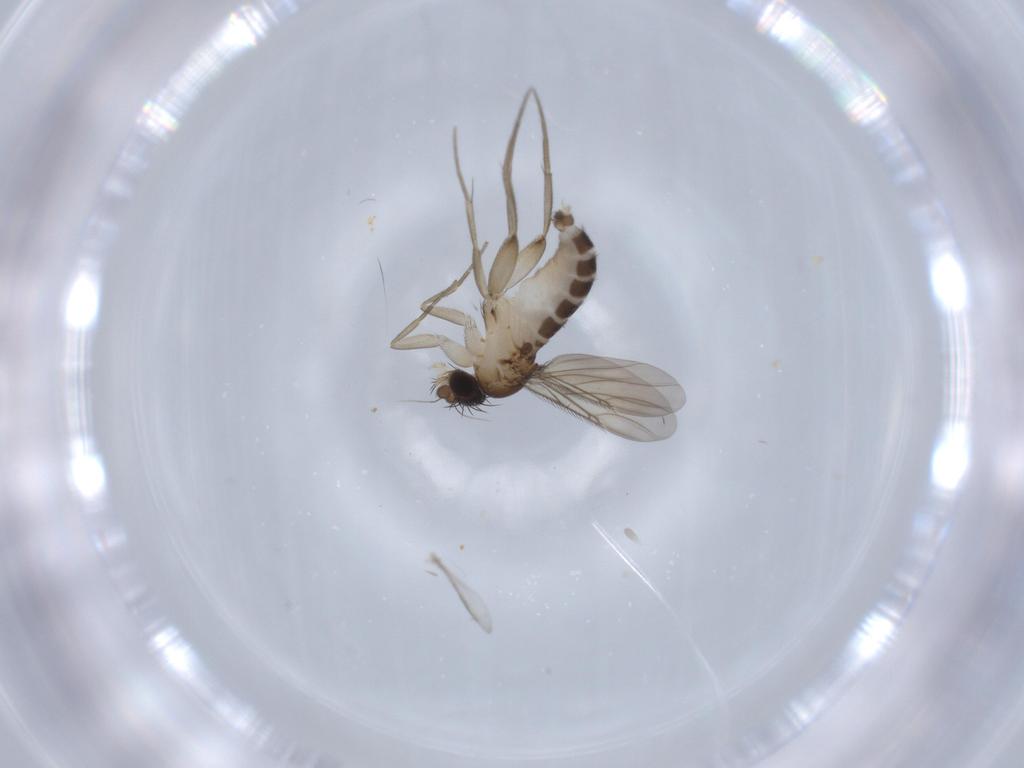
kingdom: Animalia
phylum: Arthropoda
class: Insecta
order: Diptera
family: Phoridae
